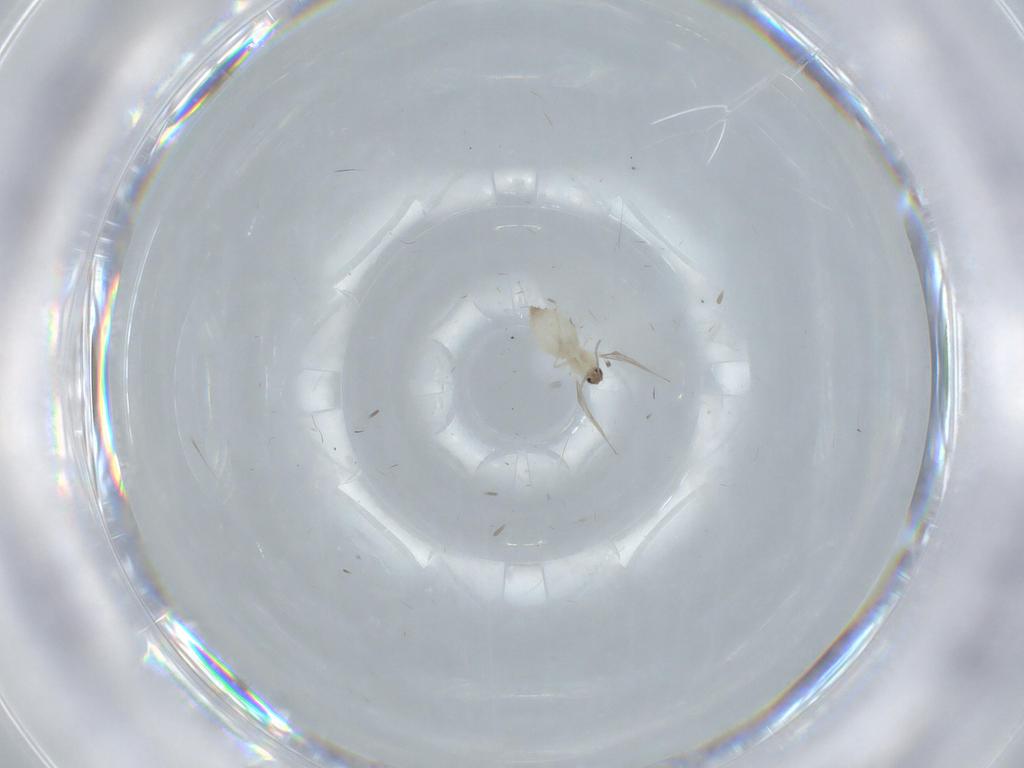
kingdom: Animalia
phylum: Arthropoda
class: Insecta
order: Diptera
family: Cecidomyiidae
